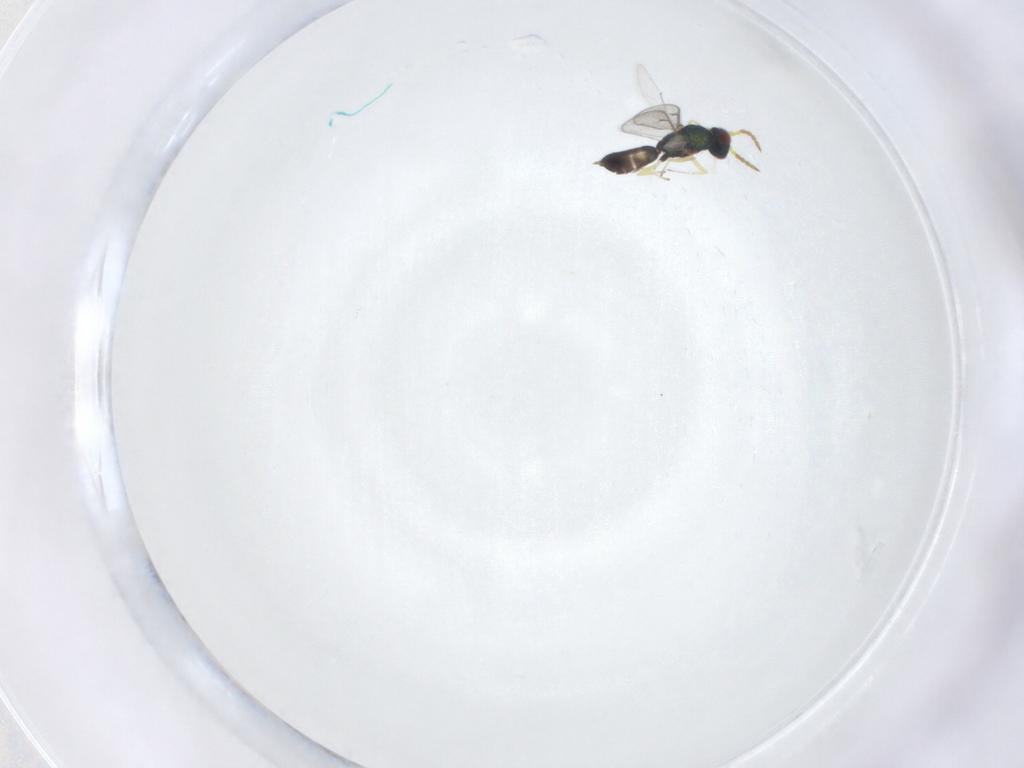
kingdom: Animalia
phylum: Arthropoda
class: Insecta
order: Hymenoptera
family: Eulophidae
